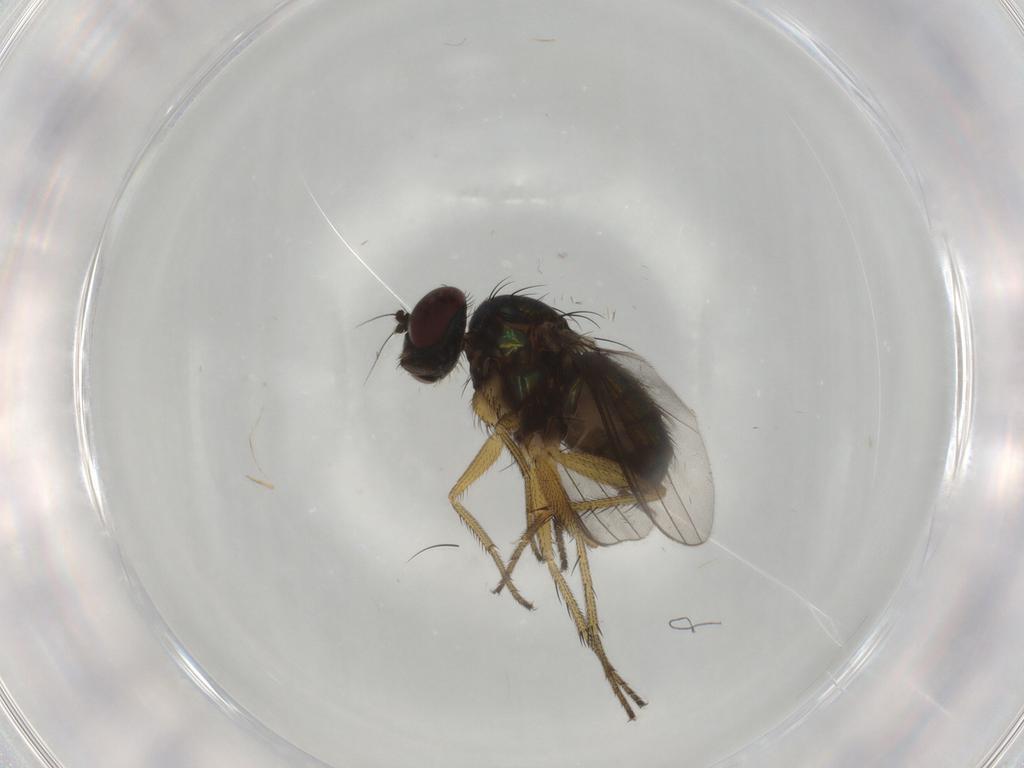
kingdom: Animalia
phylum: Arthropoda
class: Insecta
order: Diptera
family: Dolichopodidae
